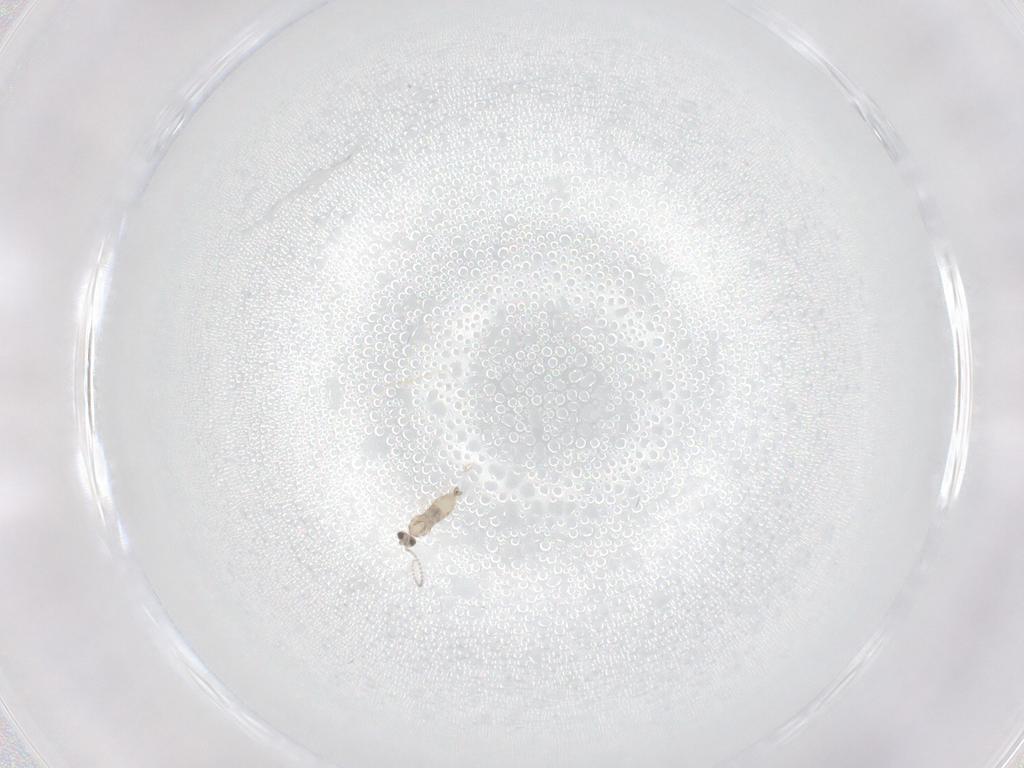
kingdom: Animalia
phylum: Arthropoda
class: Insecta
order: Diptera
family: Cecidomyiidae
